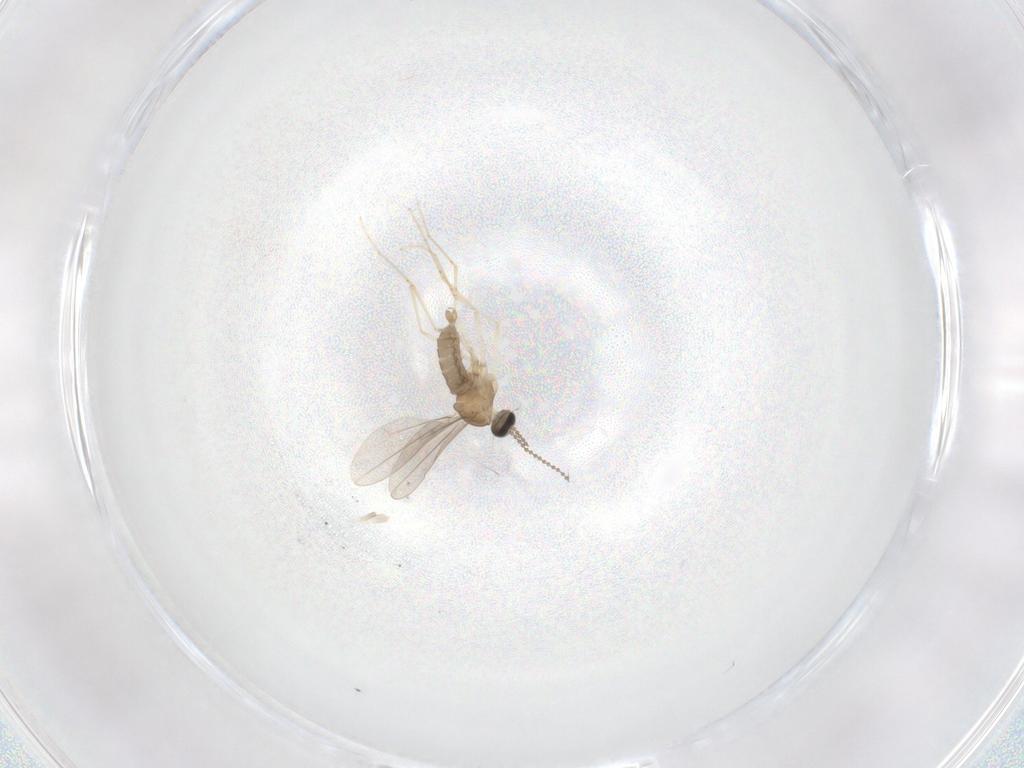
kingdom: Animalia
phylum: Arthropoda
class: Insecta
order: Diptera
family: Cecidomyiidae
